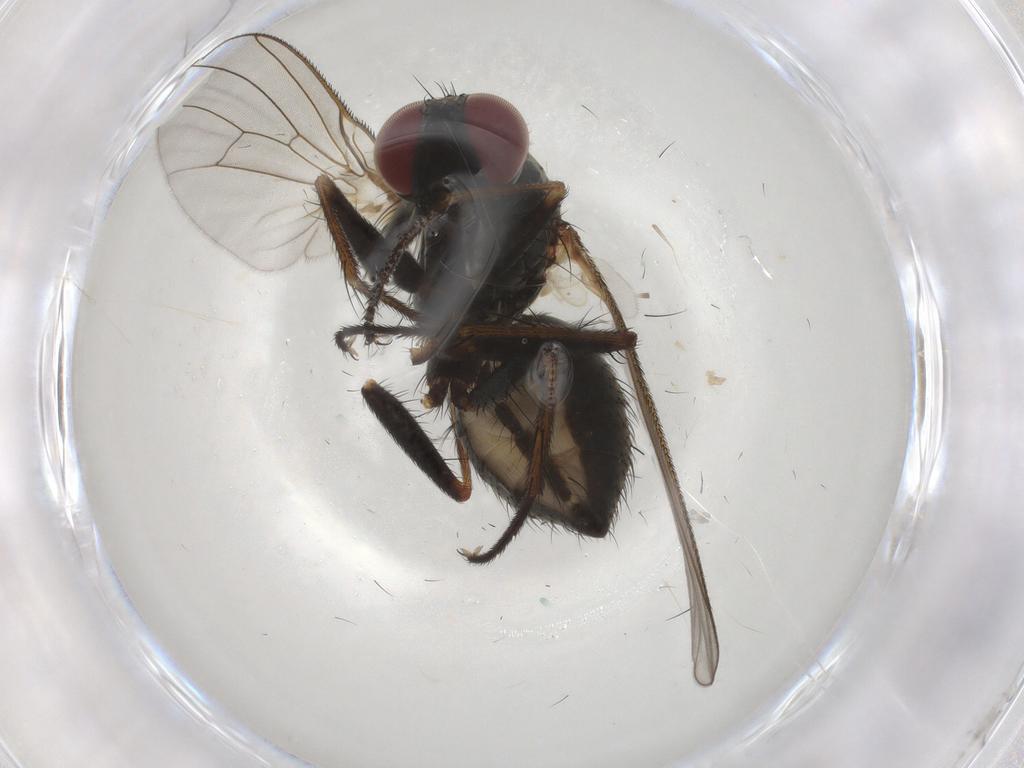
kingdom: Animalia
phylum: Arthropoda
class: Insecta
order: Diptera
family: Muscidae
